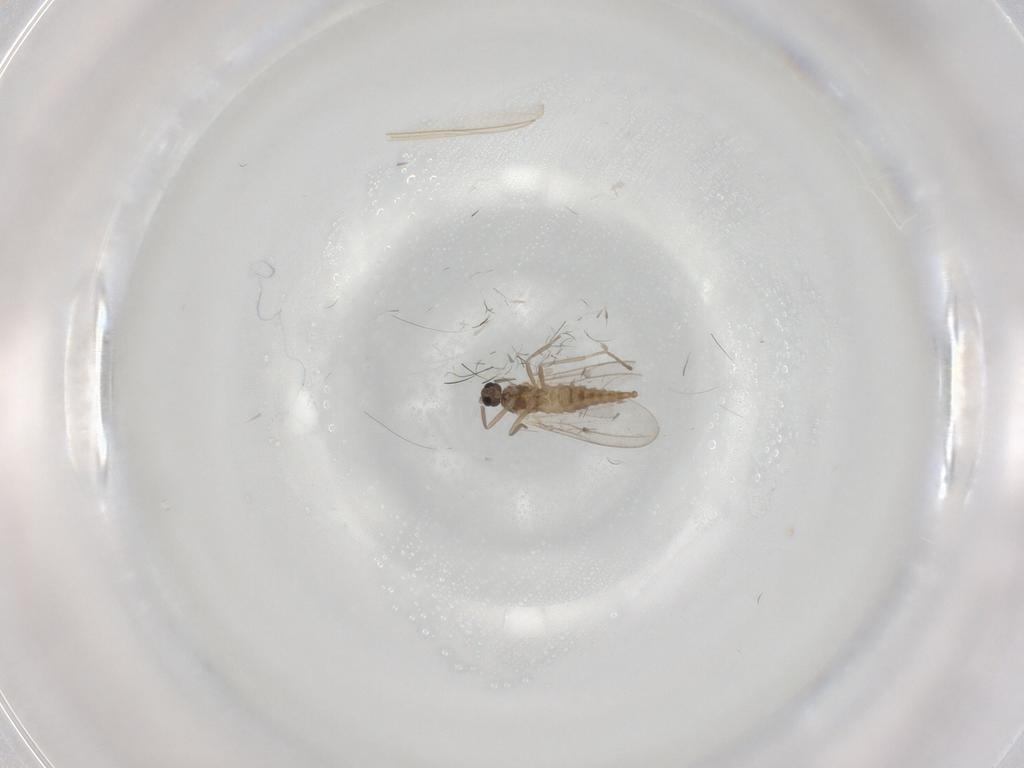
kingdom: Animalia
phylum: Arthropoda
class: Insecta
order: Diptera
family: Cecidomyiidae
